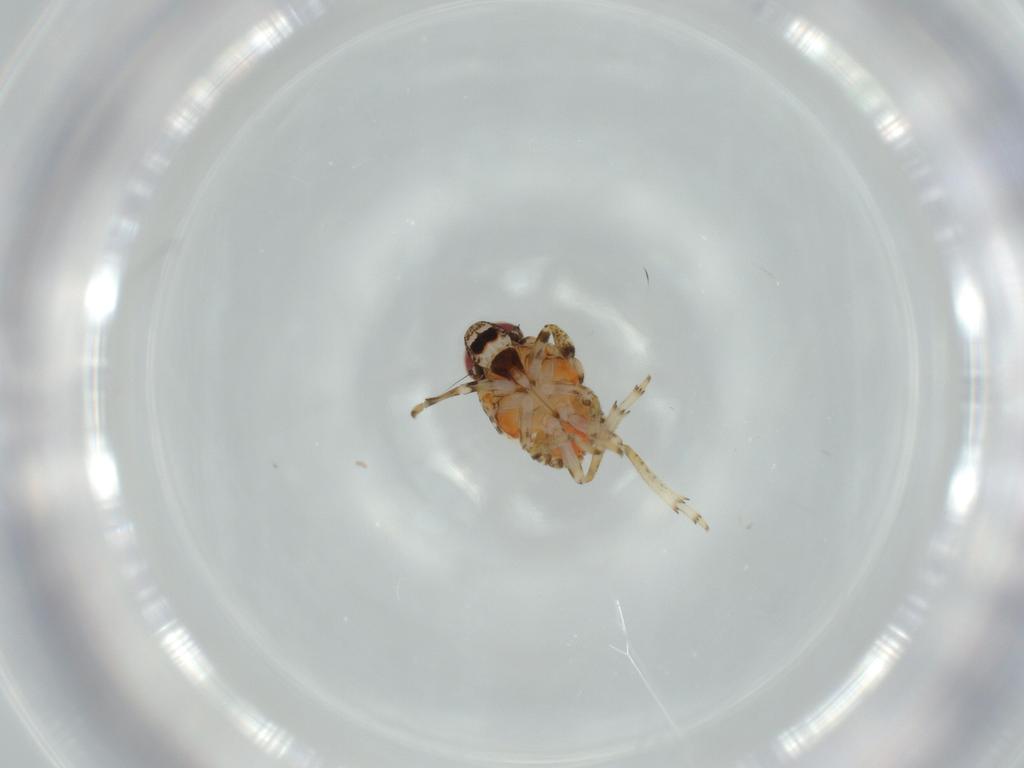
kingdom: Animalia
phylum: Arthropoda
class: Insecta
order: Hemiptera
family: Issidae
